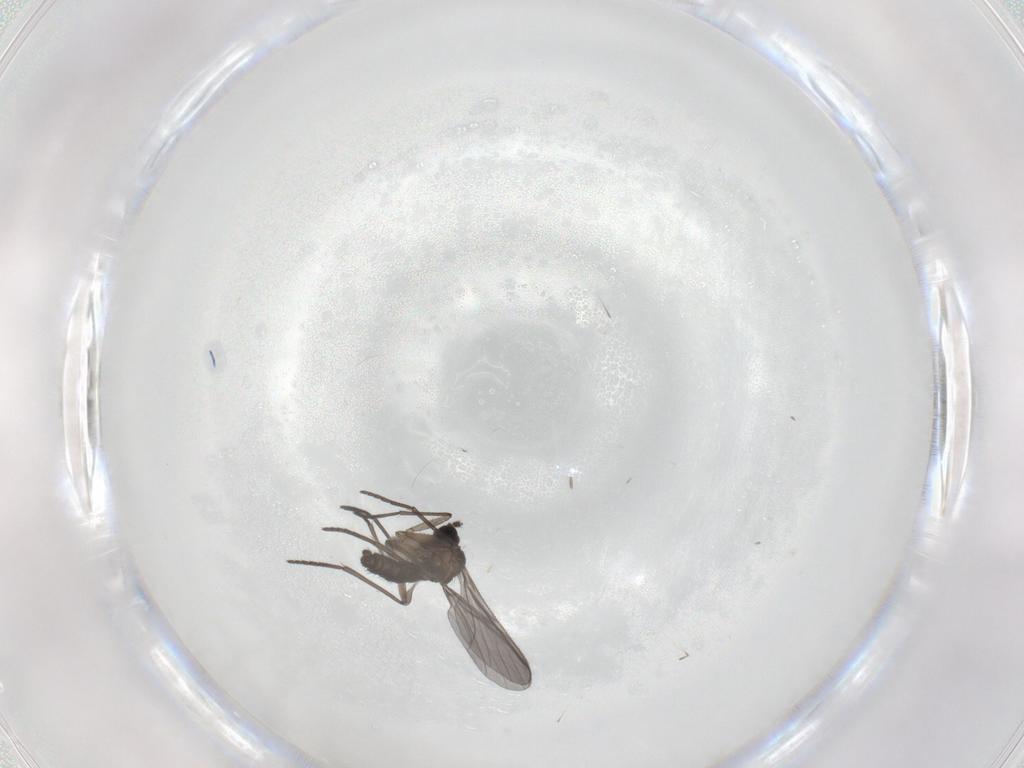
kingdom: Animalia
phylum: Arthropoda
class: Insecta
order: Diptera
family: Chironomidae
